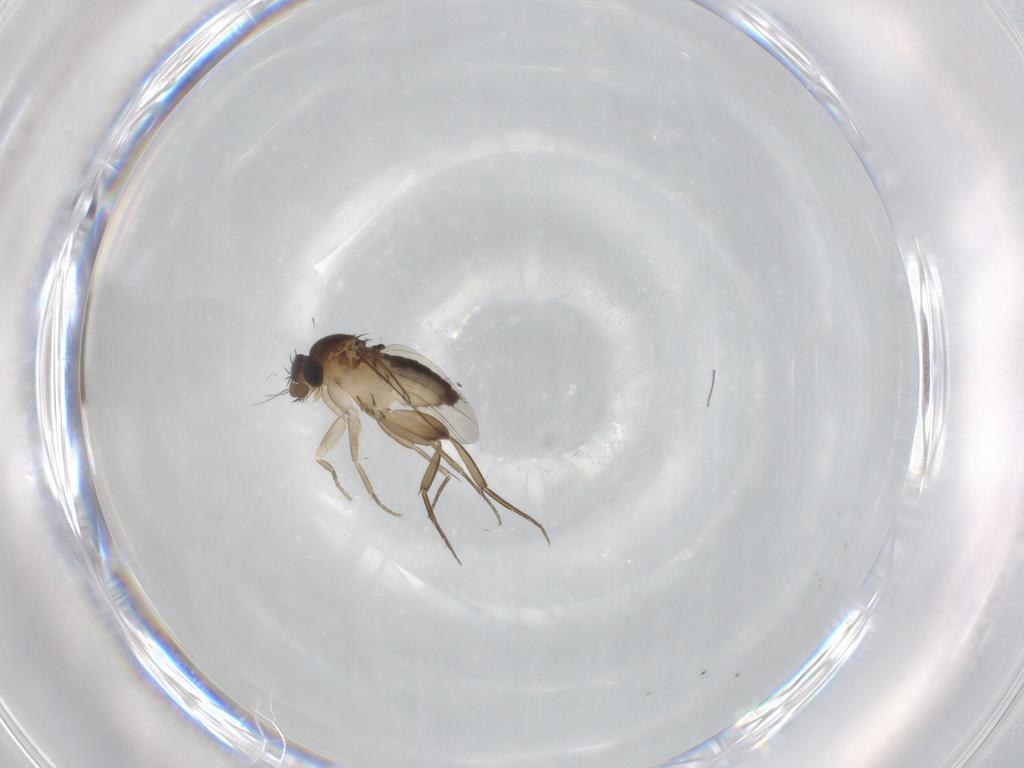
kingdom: Animalia
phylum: Arthropoda
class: Insecta
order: Diptera
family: Phoridae
